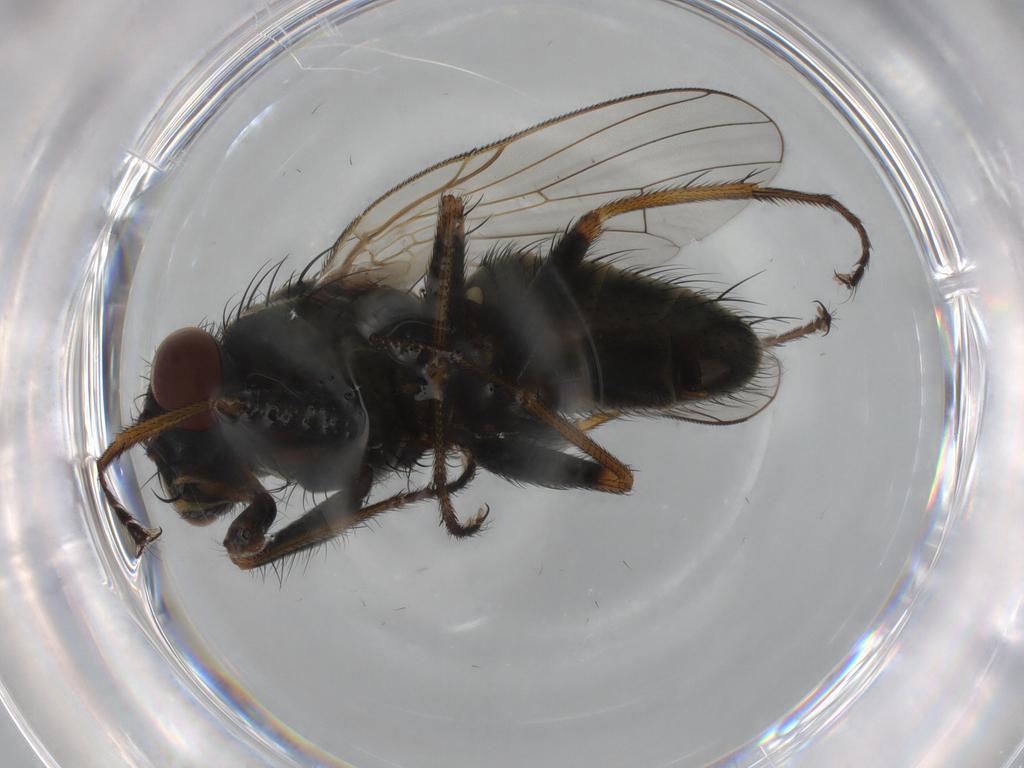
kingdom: Animalia
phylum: Arthropoda
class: Insecta
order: Diptera
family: Muscidae
